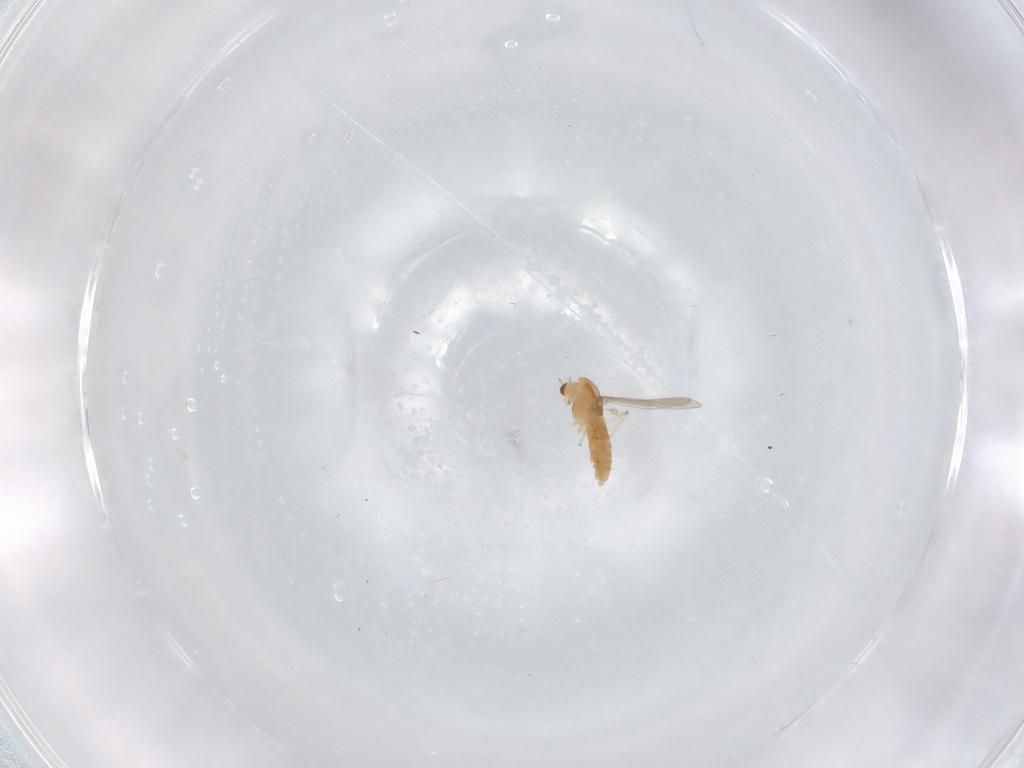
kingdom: Animalia
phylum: Arthropoda
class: Insecta
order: Diptera
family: Chironomidae
